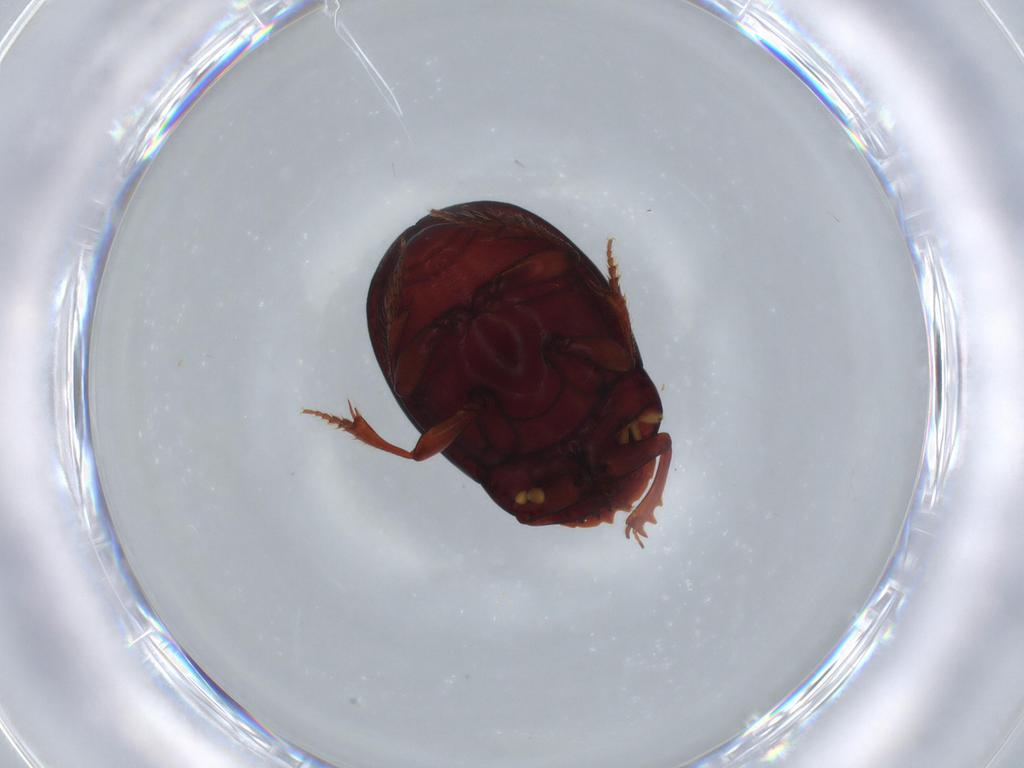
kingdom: Animalia
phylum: Arthropoda
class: Insecta
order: Coleoptera
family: Scarabaeidae
